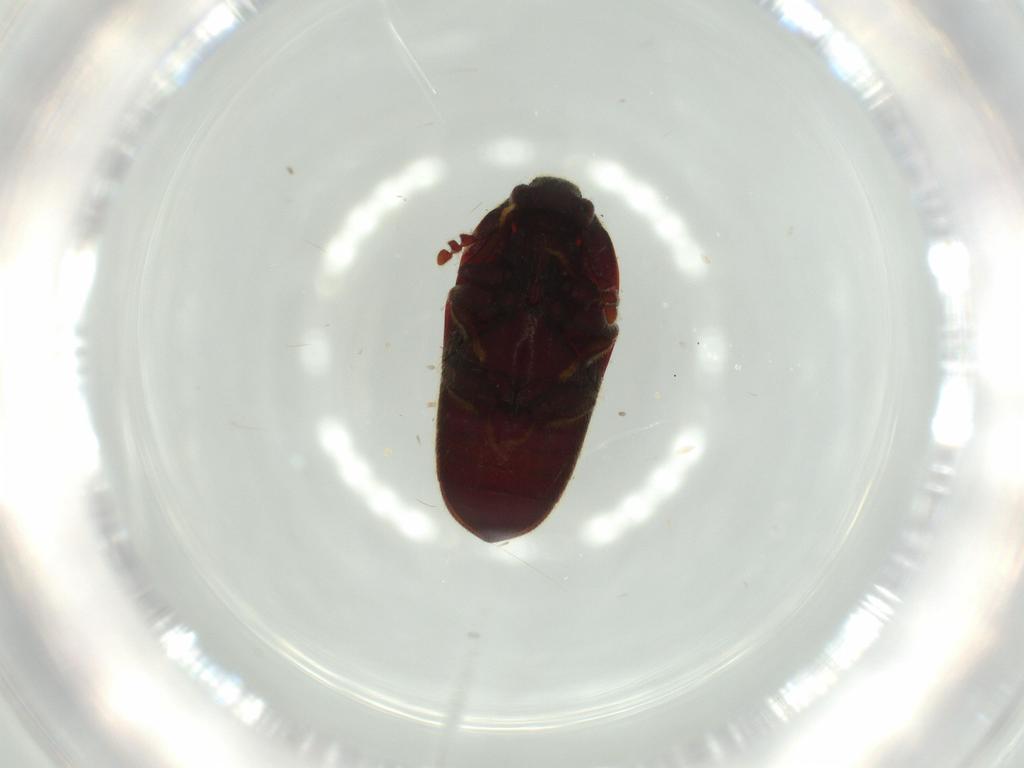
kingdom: Animalia
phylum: Arthropoda
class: Insecta
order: Coleoptera
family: Throscidae
